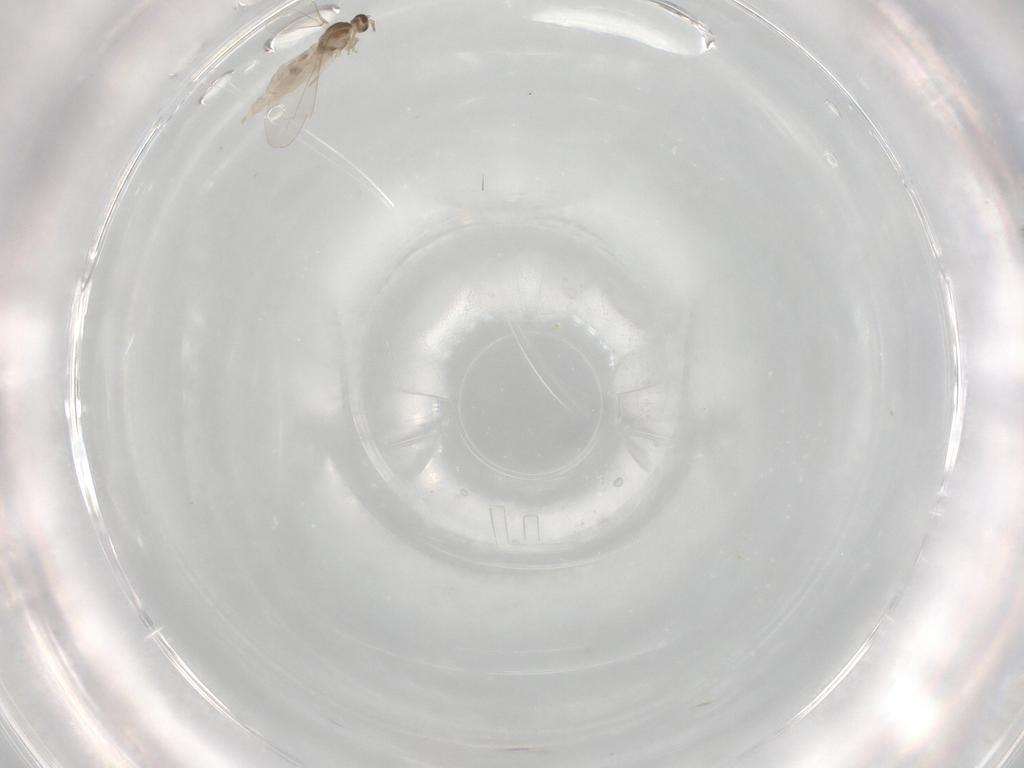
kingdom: Animalia
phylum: Arthropoda
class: Insecta
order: Diptera
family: Cecidomyiidae
